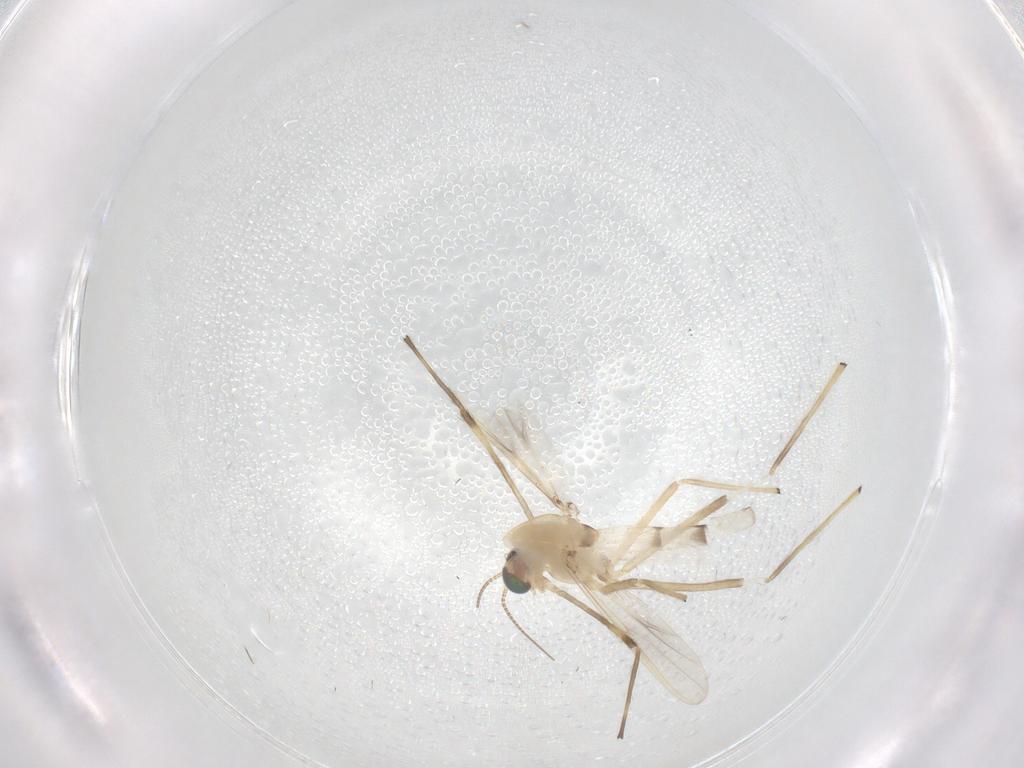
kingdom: Animalia
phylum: Arthropoda
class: Insecta
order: Diptera
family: Chironomidae
